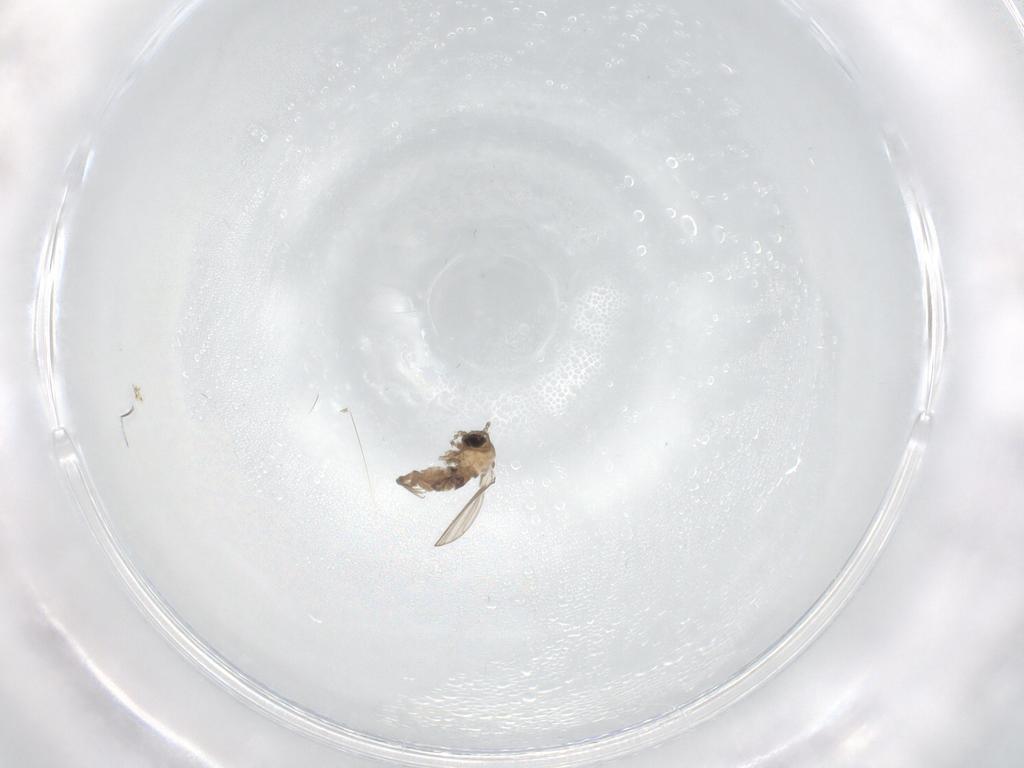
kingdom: Animalia
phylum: Arthropoda
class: Insecta
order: Diptera
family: Psychodidae
